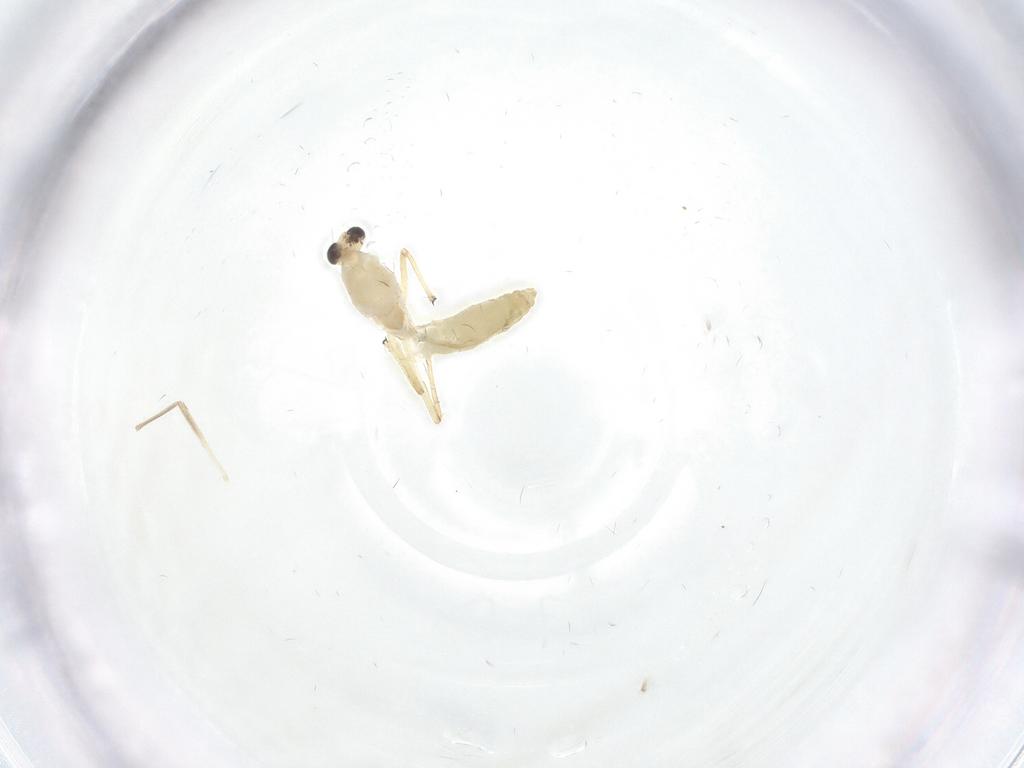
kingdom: Animalia
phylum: Arthropoda
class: Insecta
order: Diptera
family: Chironomidae
